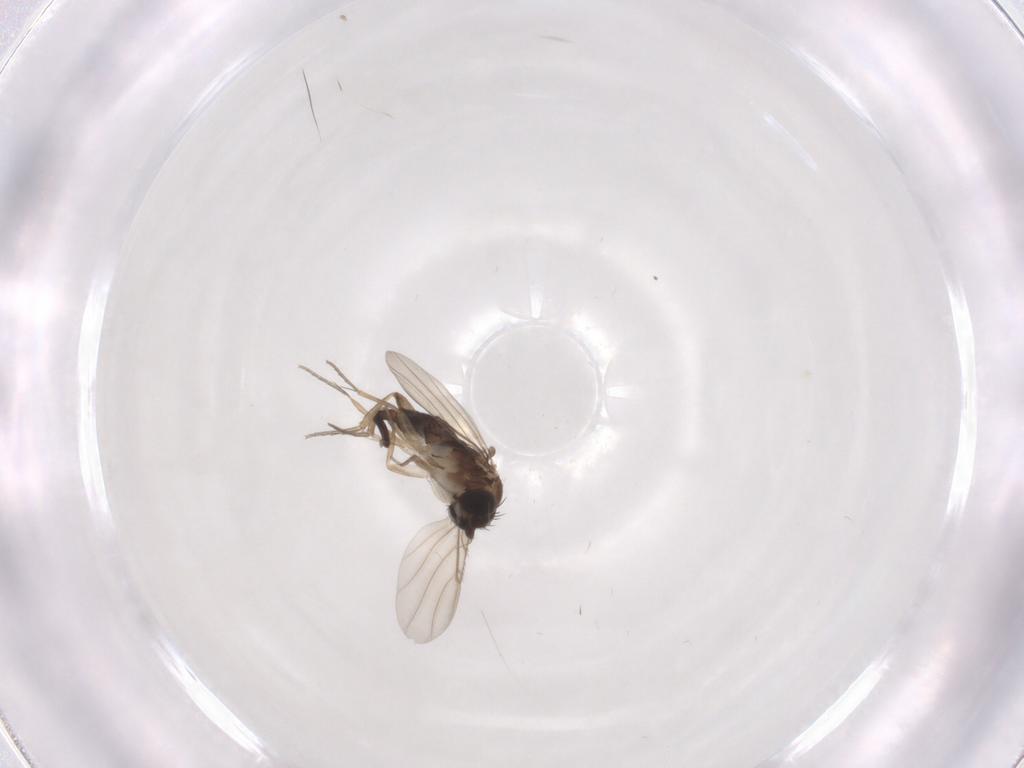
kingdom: Animalia
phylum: Arthropoda
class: Insecta
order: Diptera
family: Phoridae
